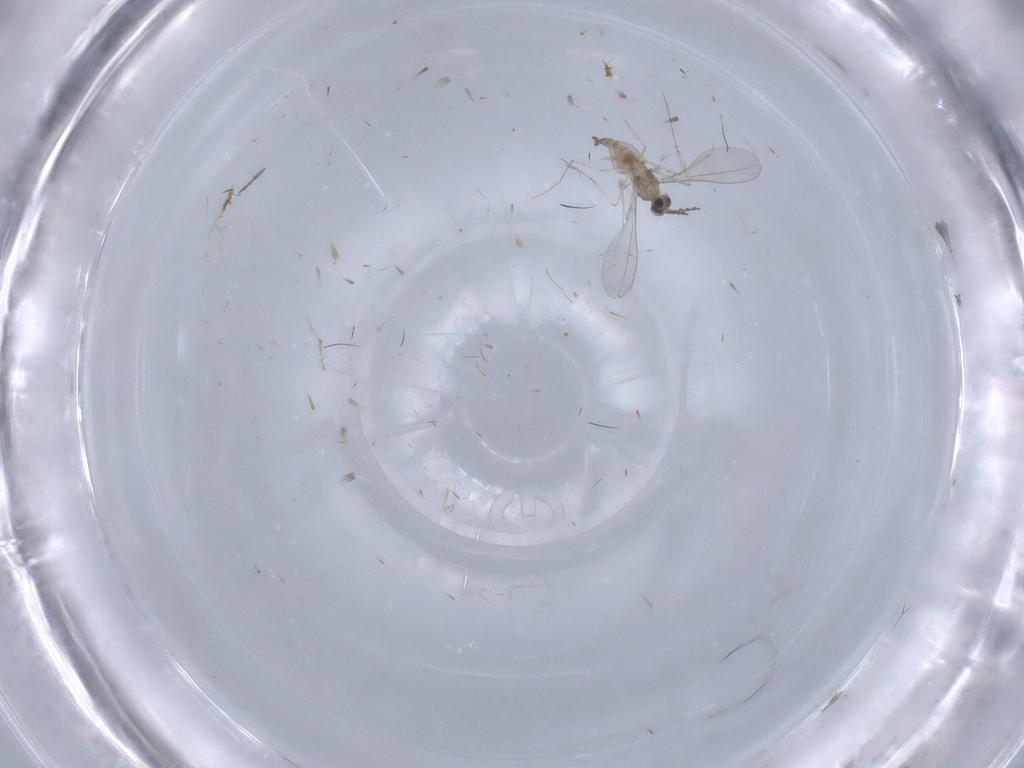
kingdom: Animalia
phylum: Arthropoda
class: Insecta
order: Diptera
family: Cecidomyiidae
